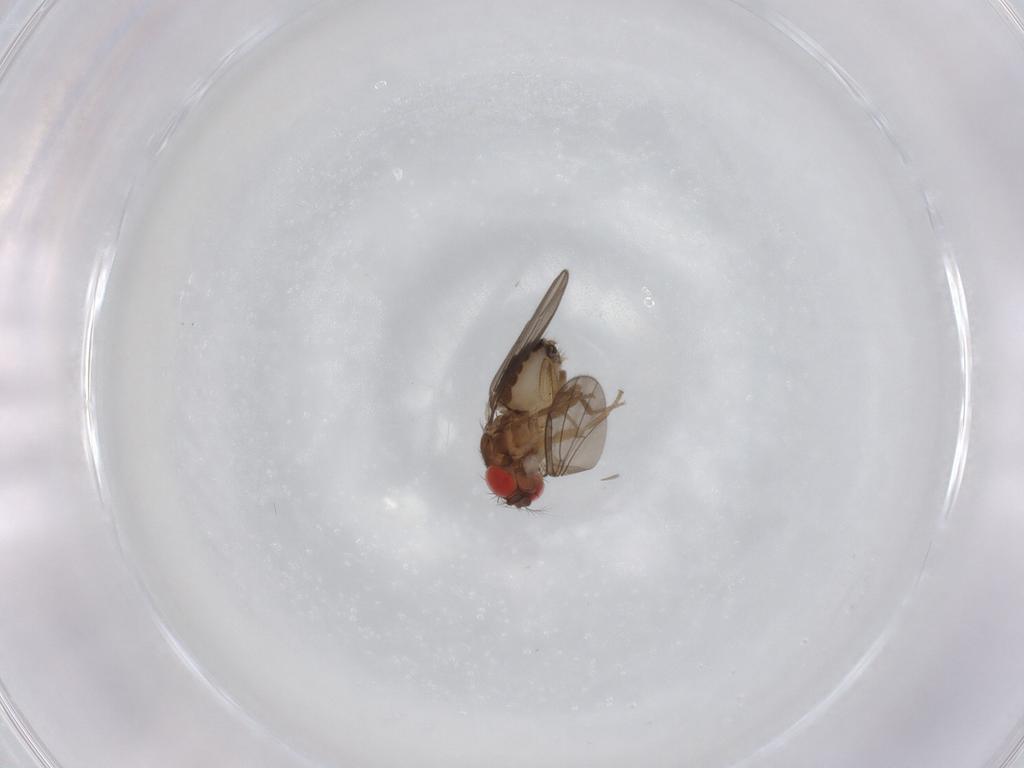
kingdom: Animalia
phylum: Arthropoda
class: Insecta
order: Diptera
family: Drosophilidae
